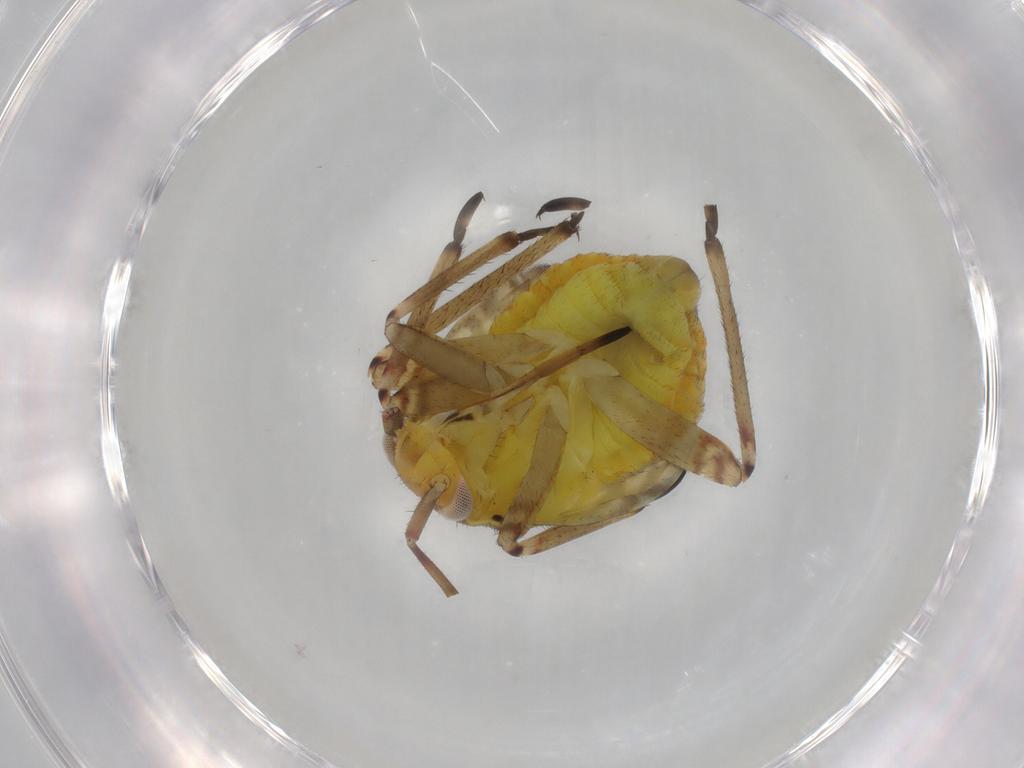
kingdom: Animalia
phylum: Arthropoda
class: Insecta
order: Hemiptera
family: Miridae
